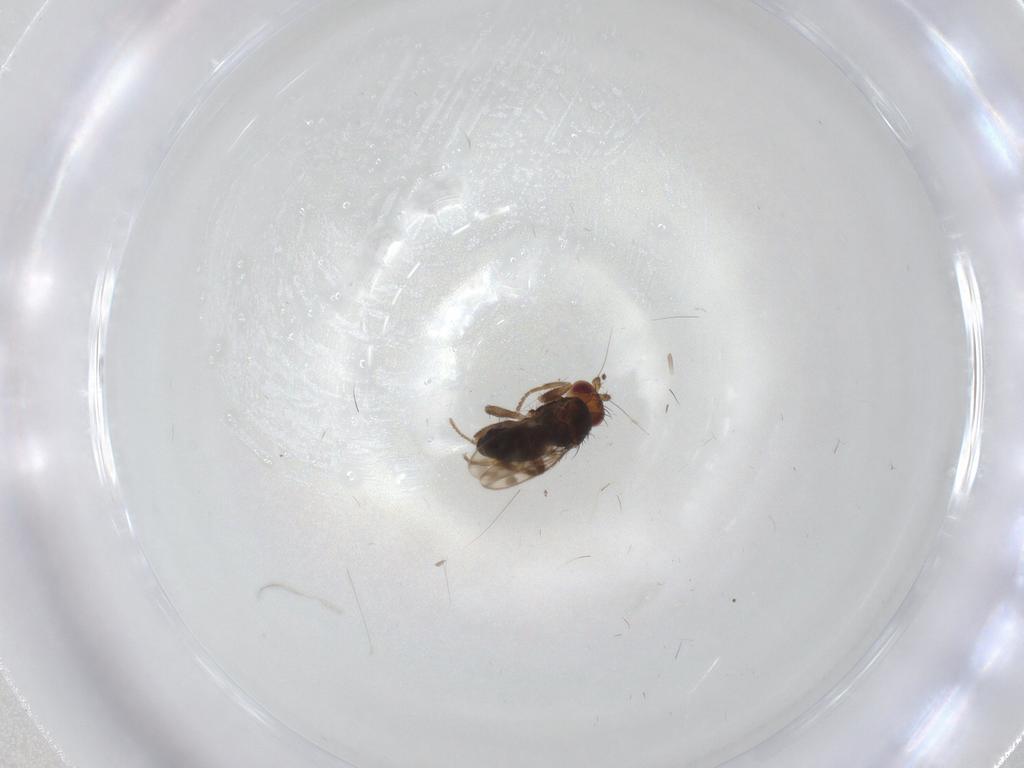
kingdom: Animalia
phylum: Arthropoda
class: Insecta
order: Diptera
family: Sphaeroceridae
